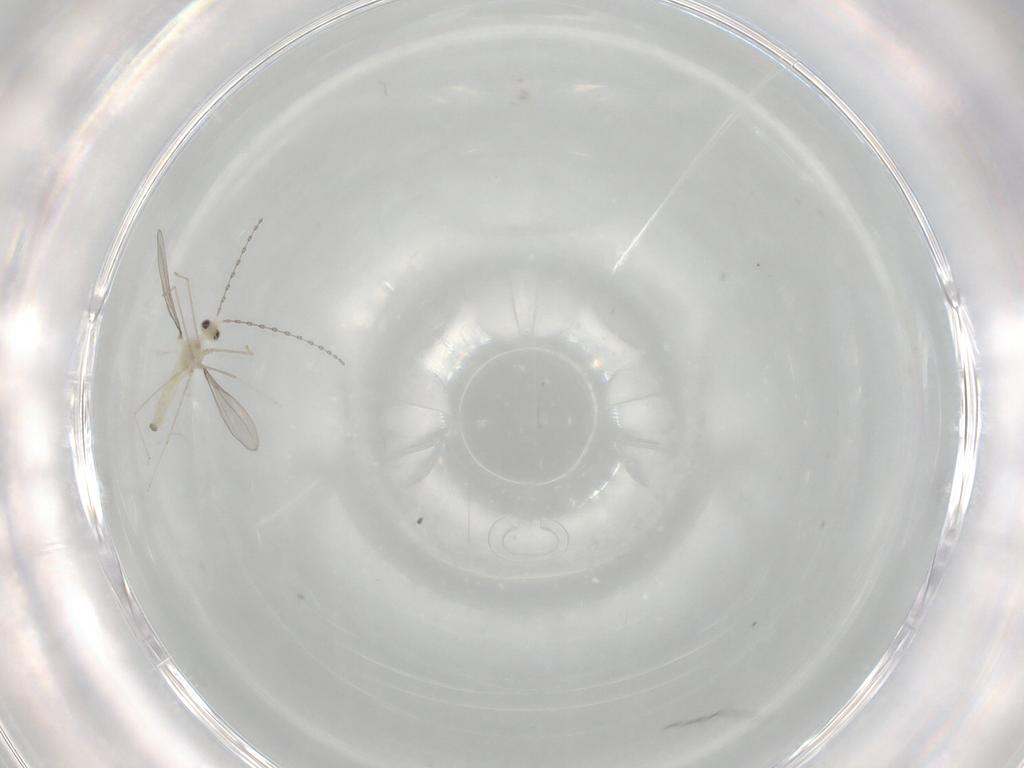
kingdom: Animalia
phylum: Arthropoda
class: Insecta
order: Diptera
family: Cecidomyiidae
